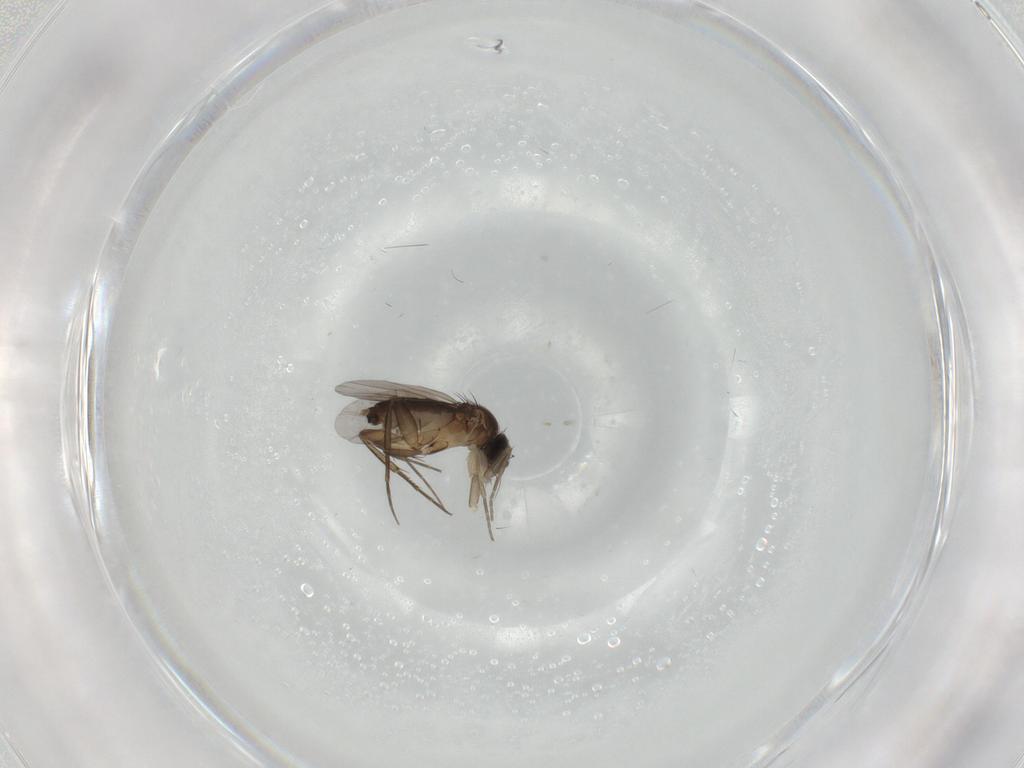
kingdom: Animalia
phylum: Arthropoda
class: Insecta
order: Diptera
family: Phoridae
